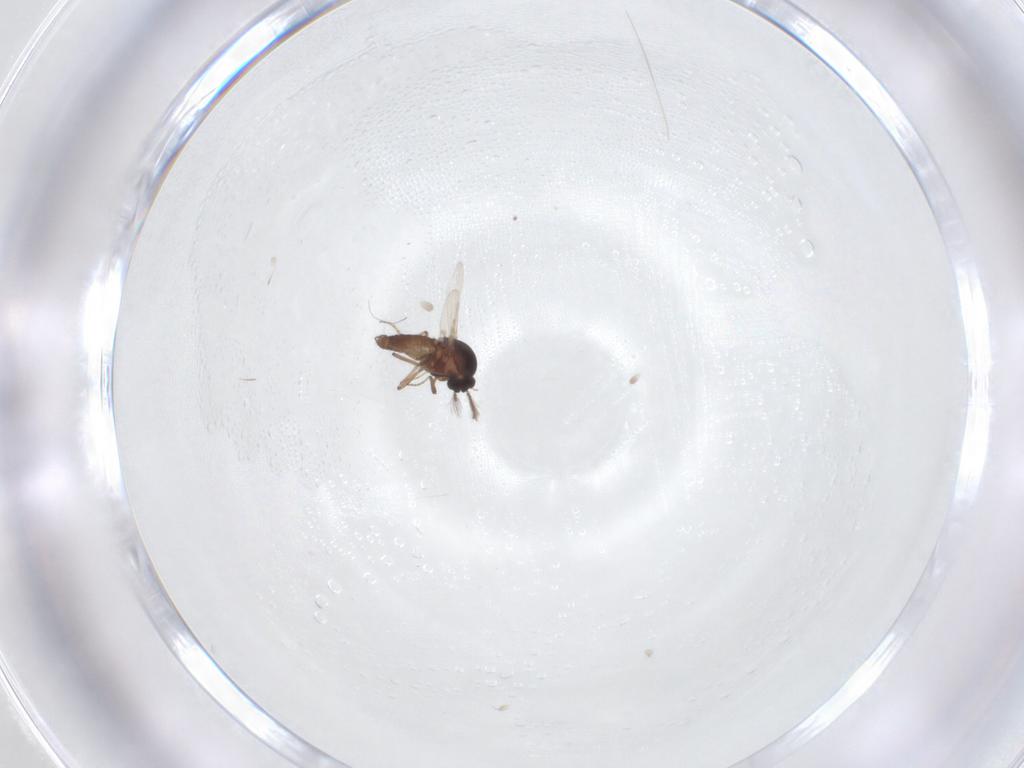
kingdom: Animalia
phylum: Arthropoda
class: Insecta
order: Diptera
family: Ceratopogonidae
